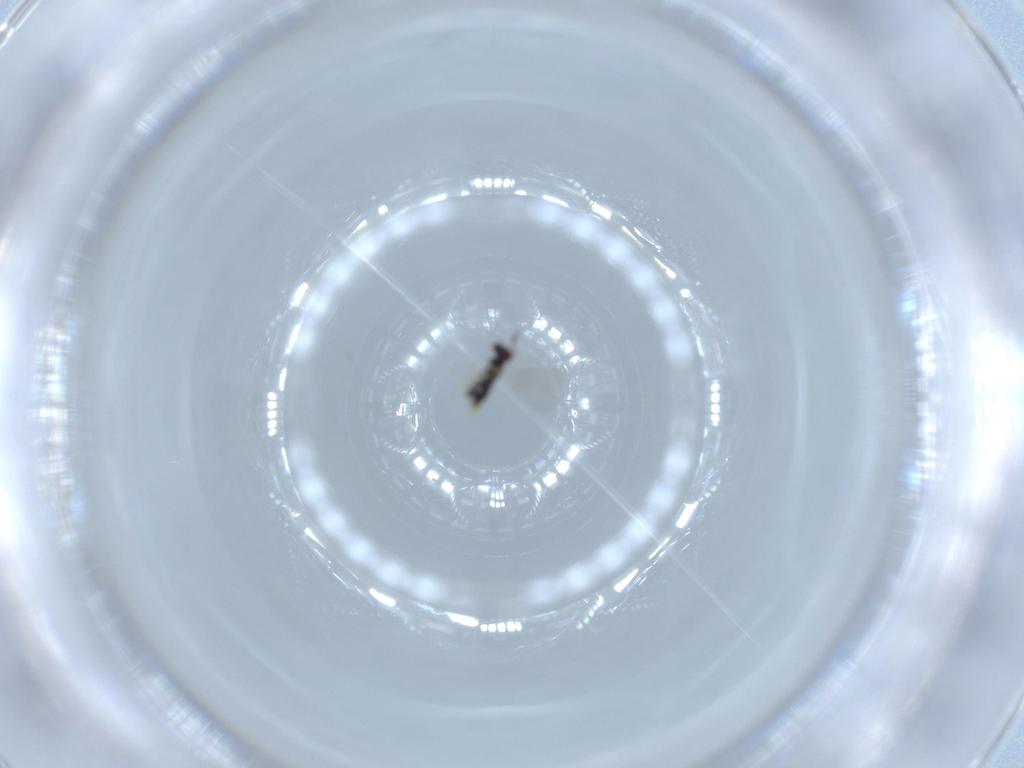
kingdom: Animalia
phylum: Arthropoda
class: Insecta
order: Hymenoptera
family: Aphelinidae
